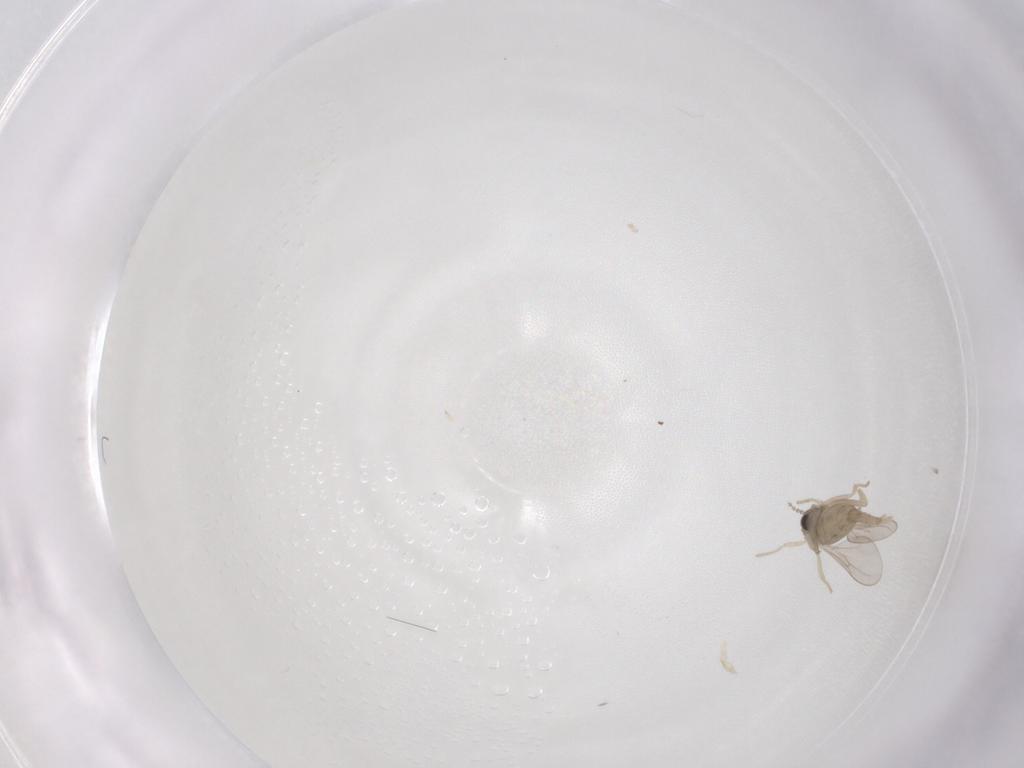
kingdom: Animalia
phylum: Arthropoda
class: Insecta
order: Diptera
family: Cecidomyiidae
